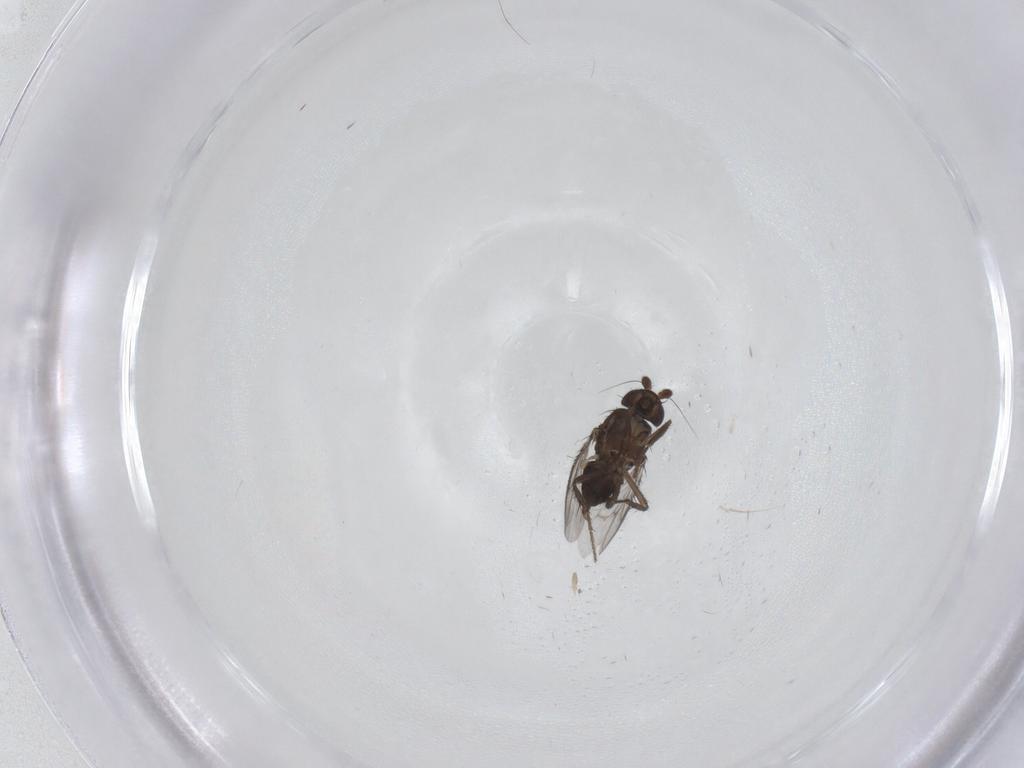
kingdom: Animalia
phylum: Arthropoda
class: Insecta
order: Diptera
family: Sphaeroceridae
